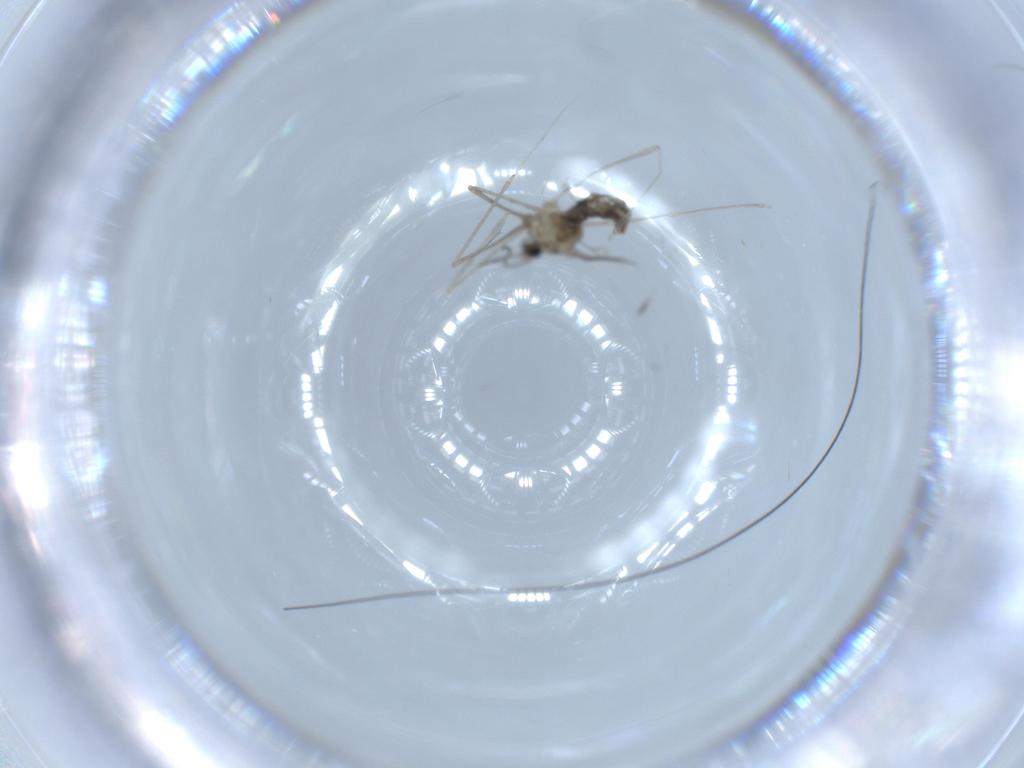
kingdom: Animalia
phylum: Arthropoda
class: Insecta
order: Diptera
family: Cecidomyiidae
